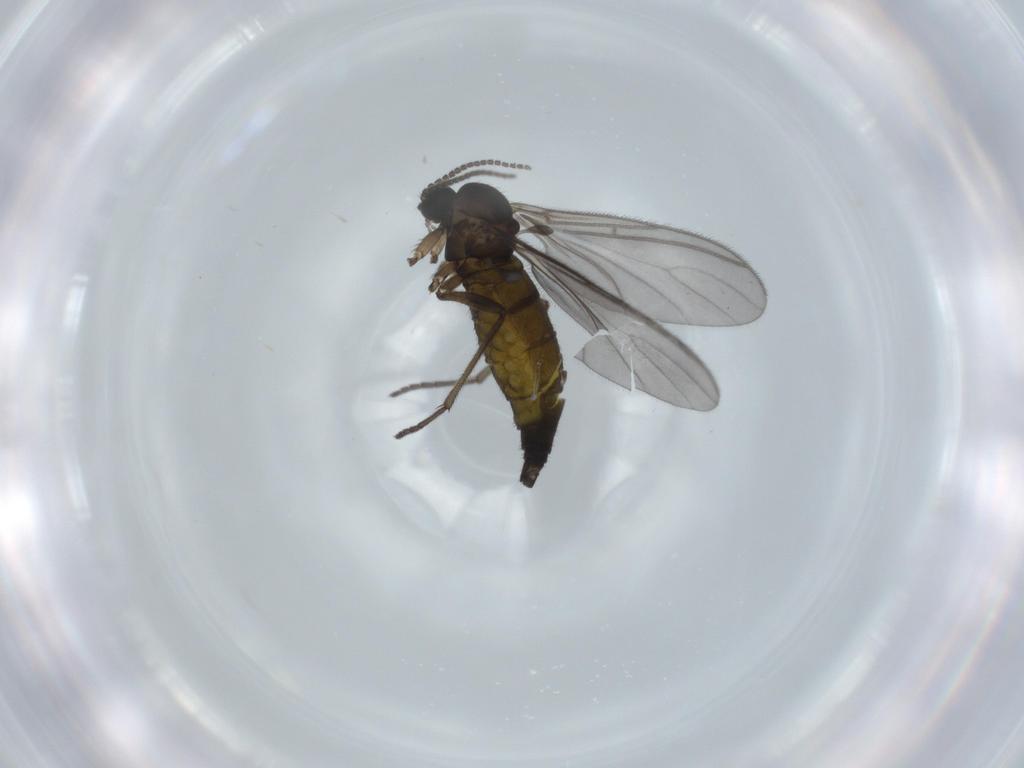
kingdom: Animalia
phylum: Arthropoda
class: Insecta
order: Diptera
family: Sciaridae
